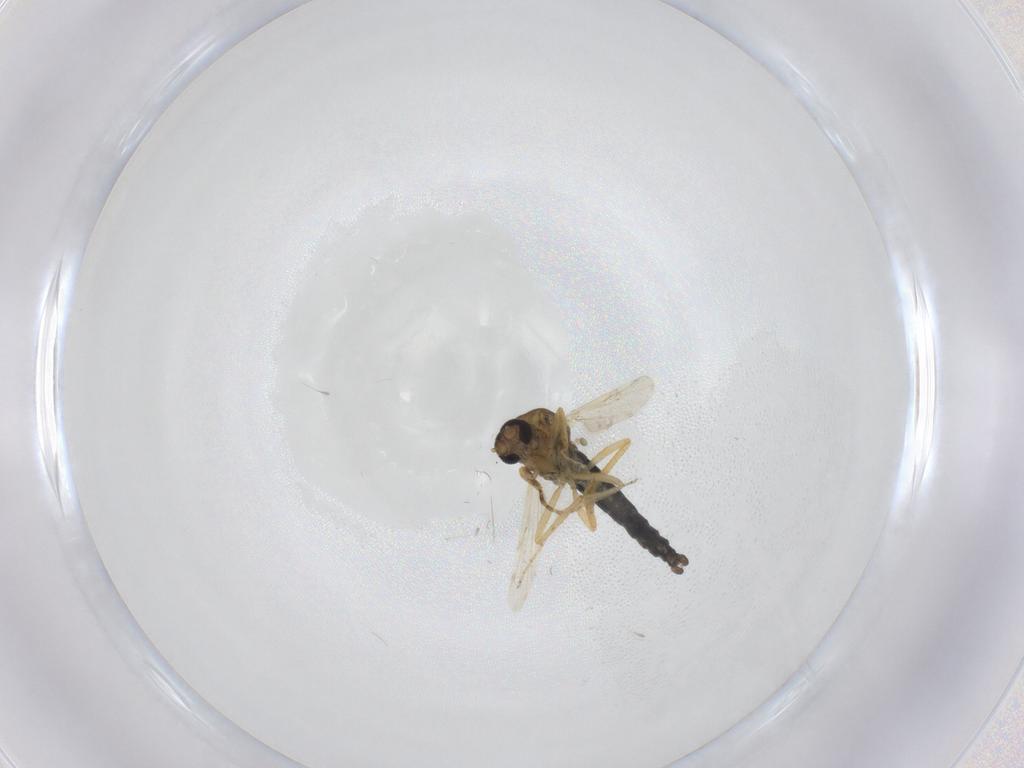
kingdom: Animalia
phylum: Arthropoda
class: Insecta
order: Diptera
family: Ceratopogonidae
